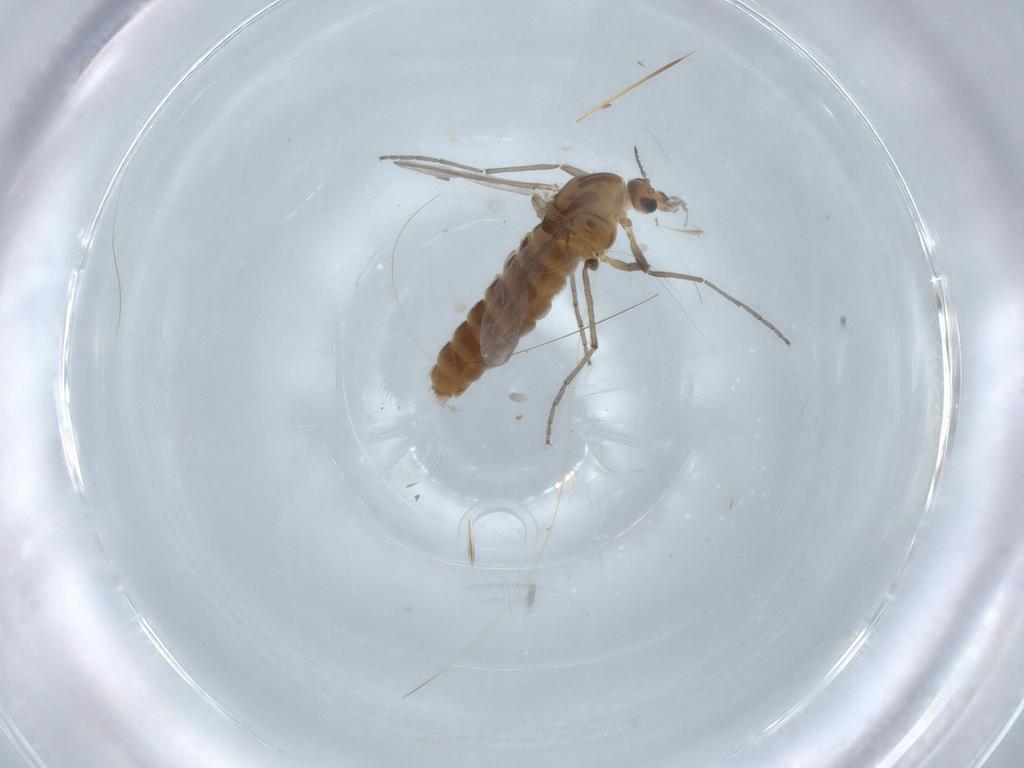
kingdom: Animalia
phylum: Arthropoda
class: Insecta
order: Diptera
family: Chironomidae
